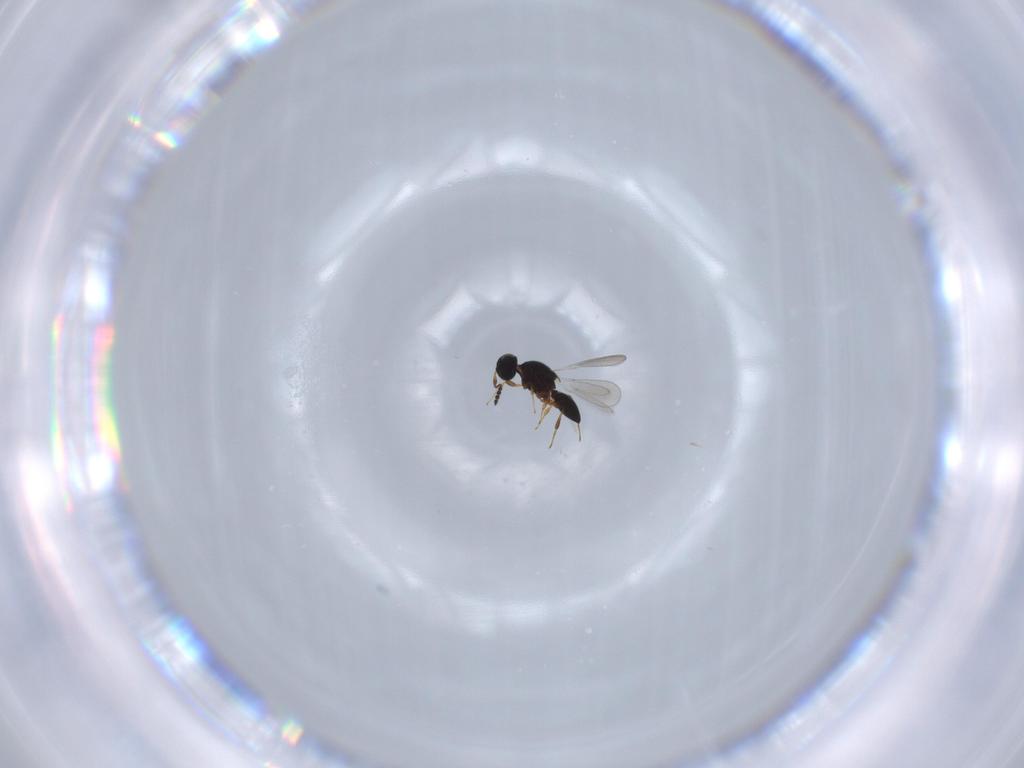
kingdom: Animalia
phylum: Arthropoda
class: Insecta
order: Hymenoptera
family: Platygastridae
